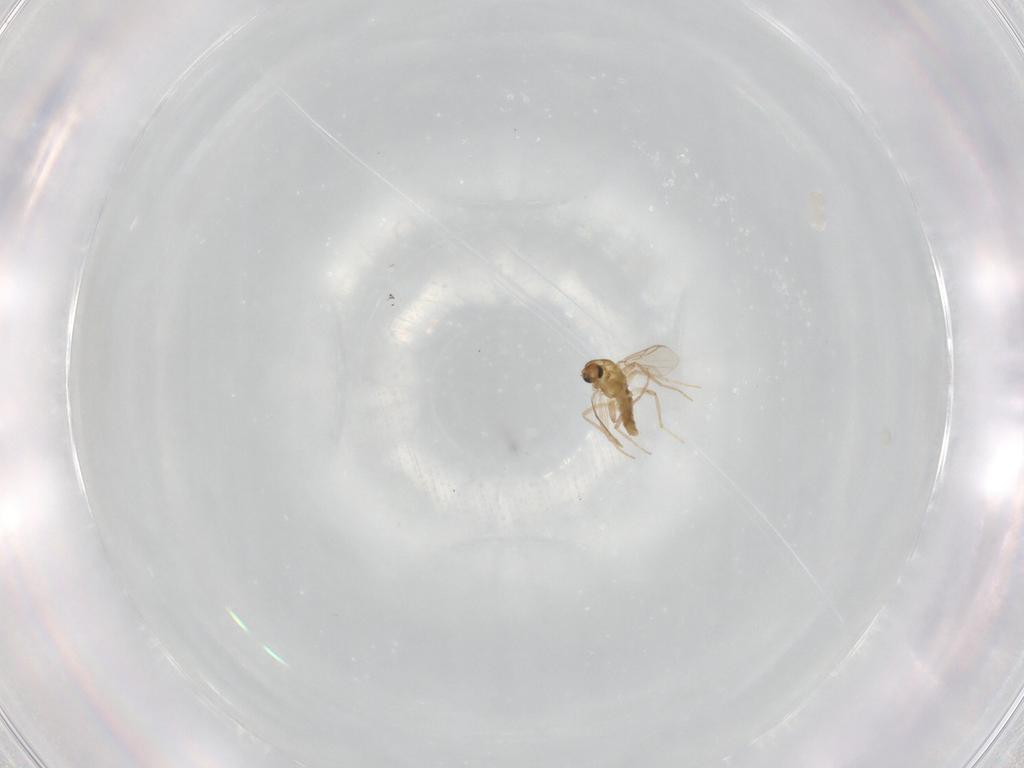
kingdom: Animalia
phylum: Arthropoda
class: Insecta
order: Diptera
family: Chironomidae
